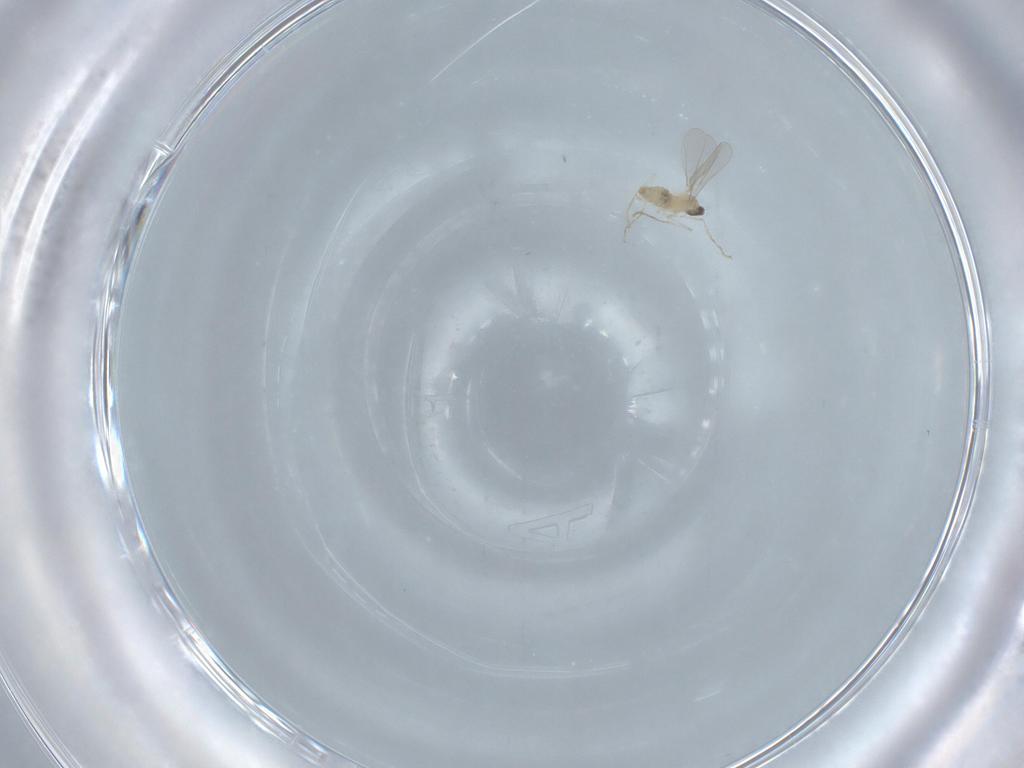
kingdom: Animalia
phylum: Arthropoda
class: Insecta
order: Diptera
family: Cecidomyiidae
